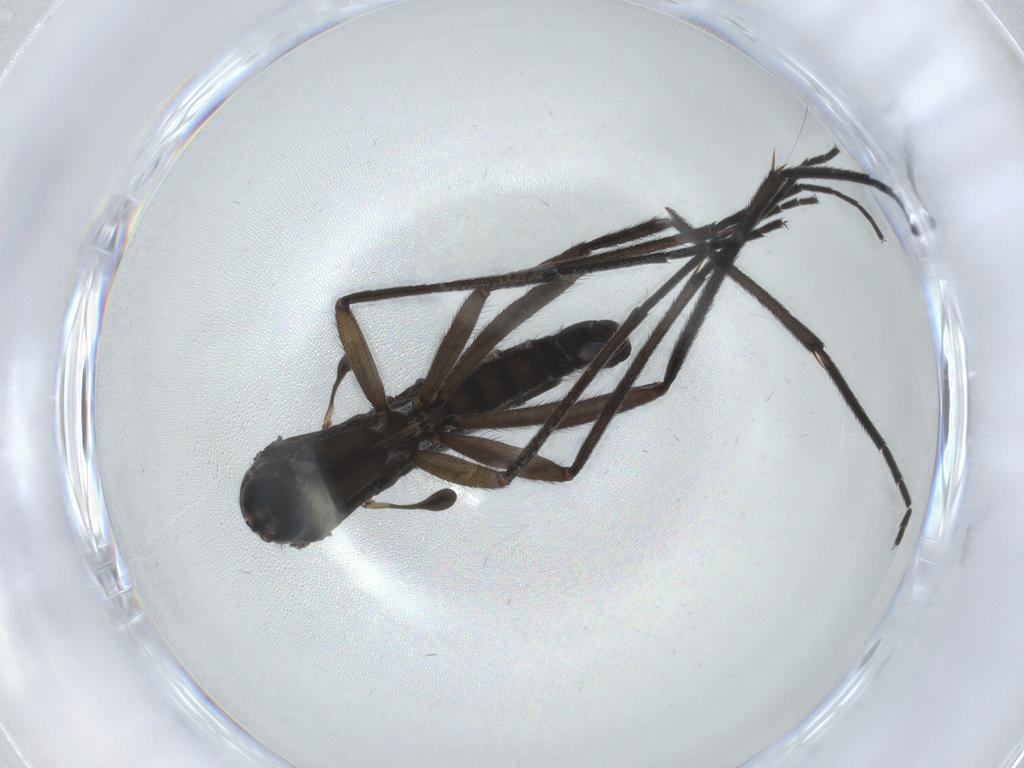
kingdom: Animalia
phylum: Arthropoda
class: Insecta
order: Diptera
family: Sciaridae
